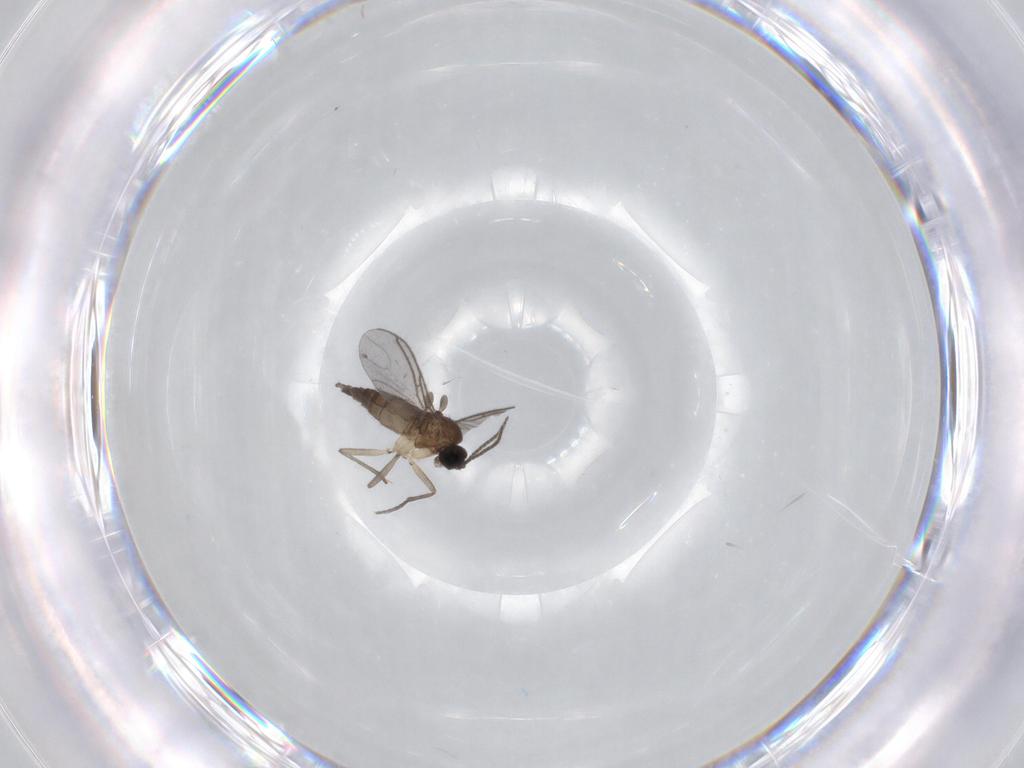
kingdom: Animalia
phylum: Arthropoda
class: Insecta
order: Diptera
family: Sciaridae
